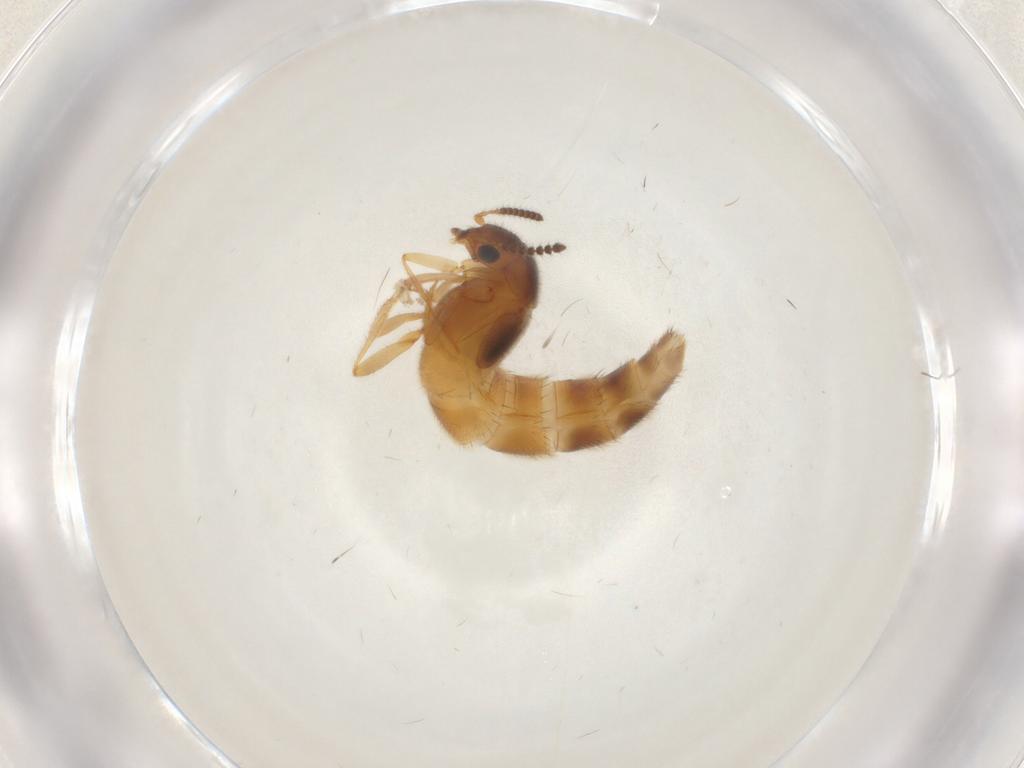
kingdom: Animalia
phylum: Arthropoda
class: Insecta
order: Coleoptera
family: Staphylinidae
